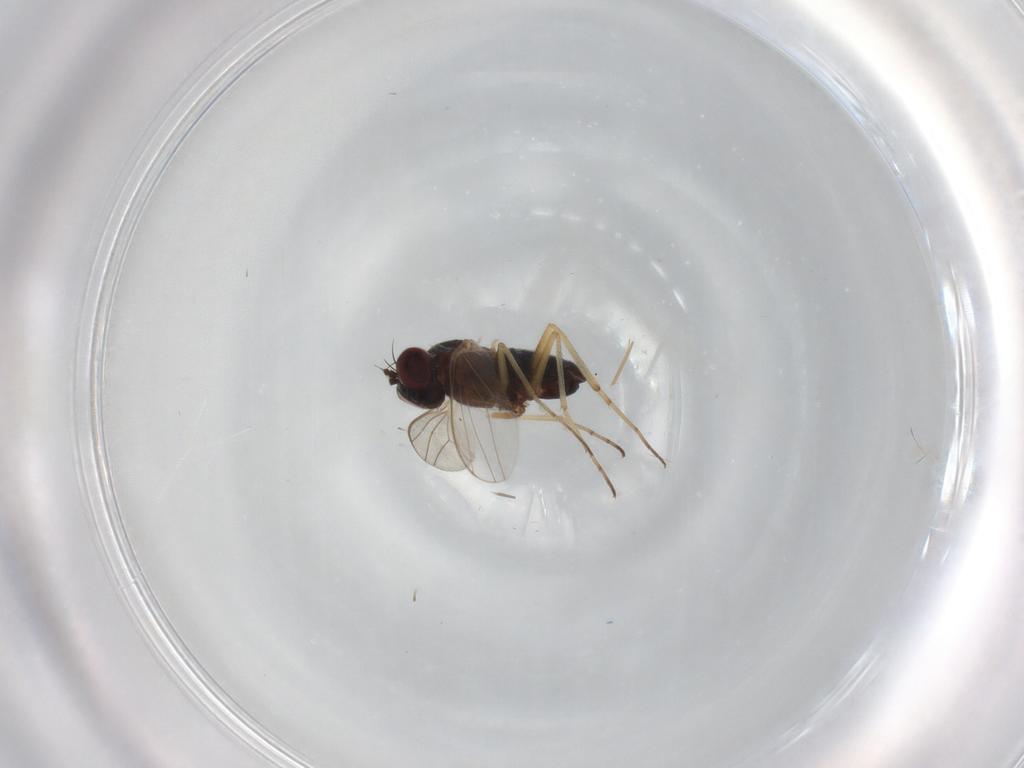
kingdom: Animalia
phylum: Arthropoda
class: Insecta
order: Diptera
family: Dolichopodidae
